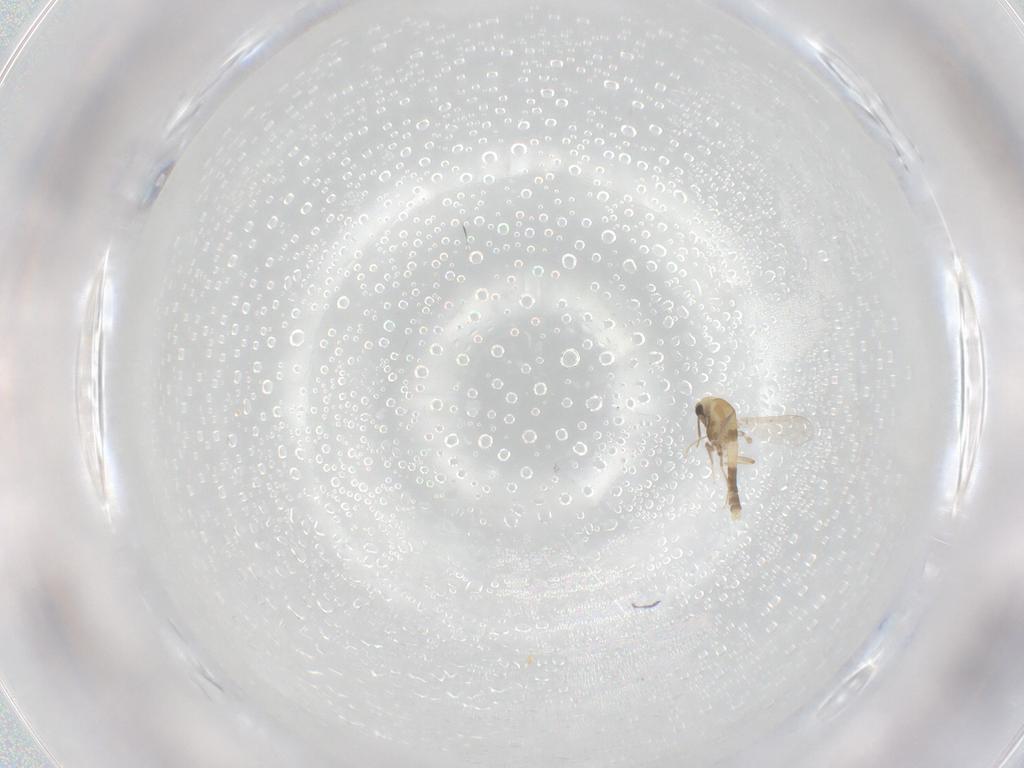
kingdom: Animalia
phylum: Arthropoda
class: Insecta
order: Diptera
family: Chironomidae
